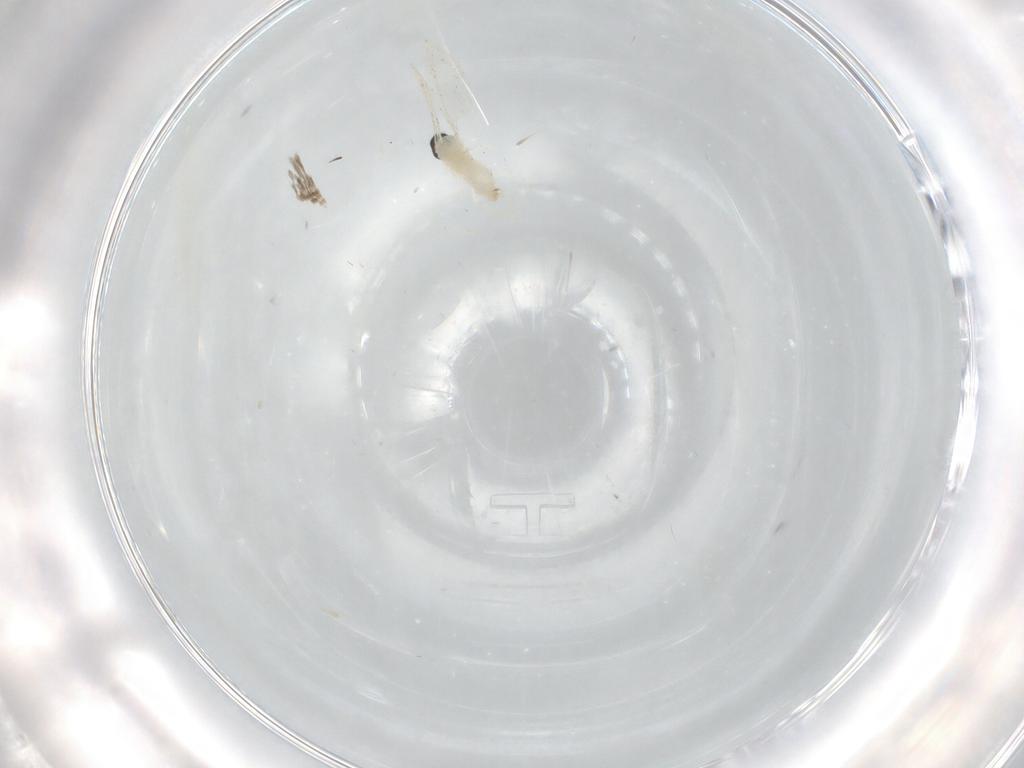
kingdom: Animalia
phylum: Arthropoda
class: Insecta
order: Diptera
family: Cecidomyiidae
